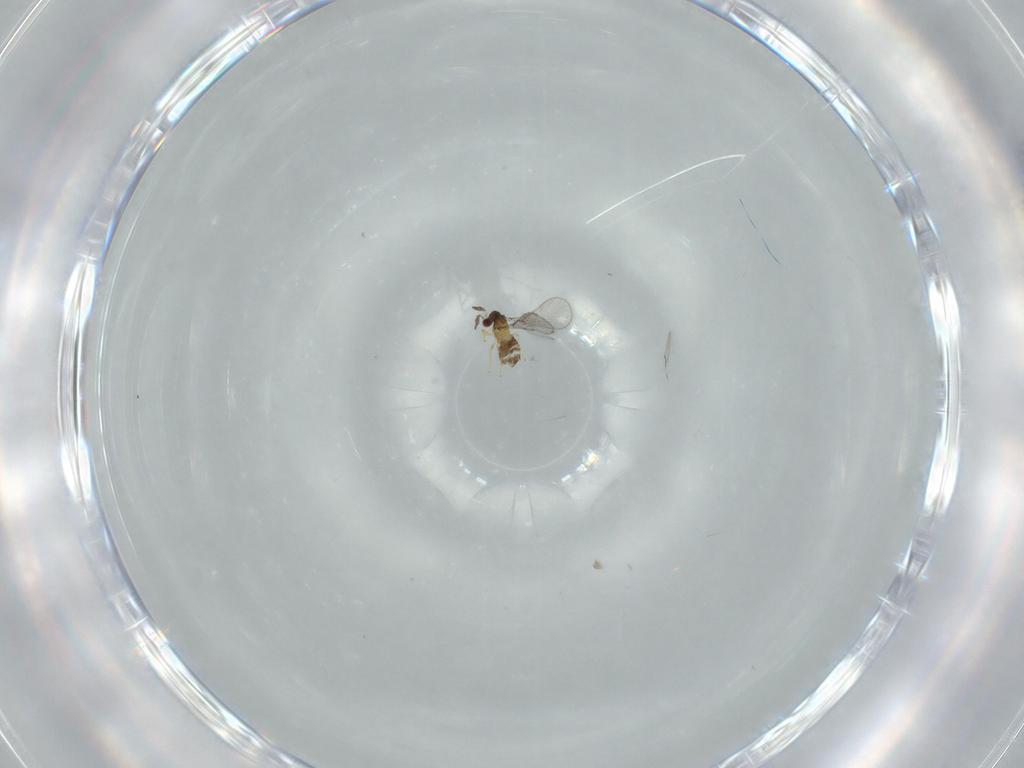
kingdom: Animalia
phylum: Arthropoda
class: Insecta
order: Hymenoptera
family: Trichogrammatidae
